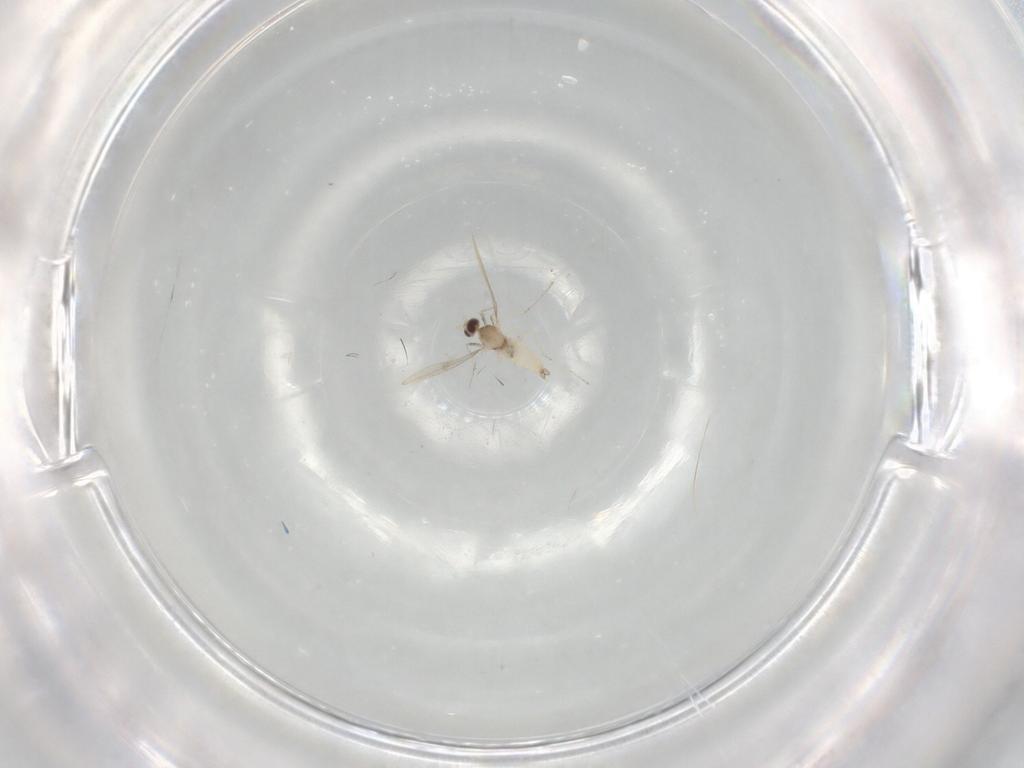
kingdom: Animalia
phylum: Arthropoda
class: Insecta
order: Diptera
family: Cecidomyiidae
